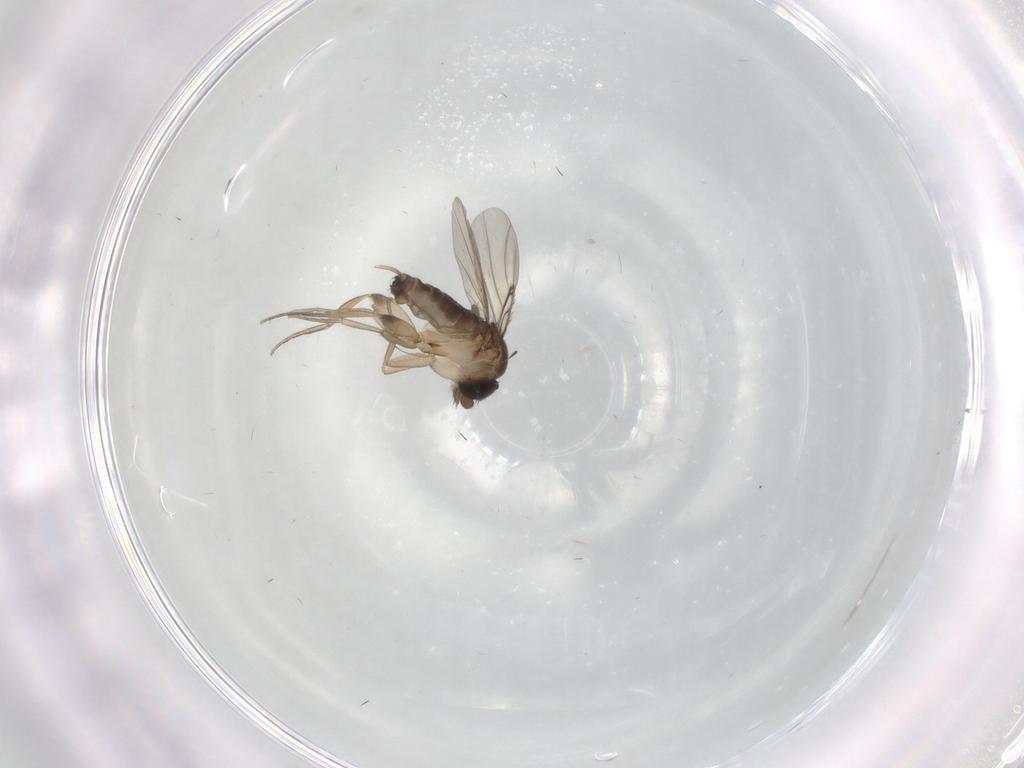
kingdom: Animalia
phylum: Arthropoda
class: Insecta
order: Diptera
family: Phoridae
